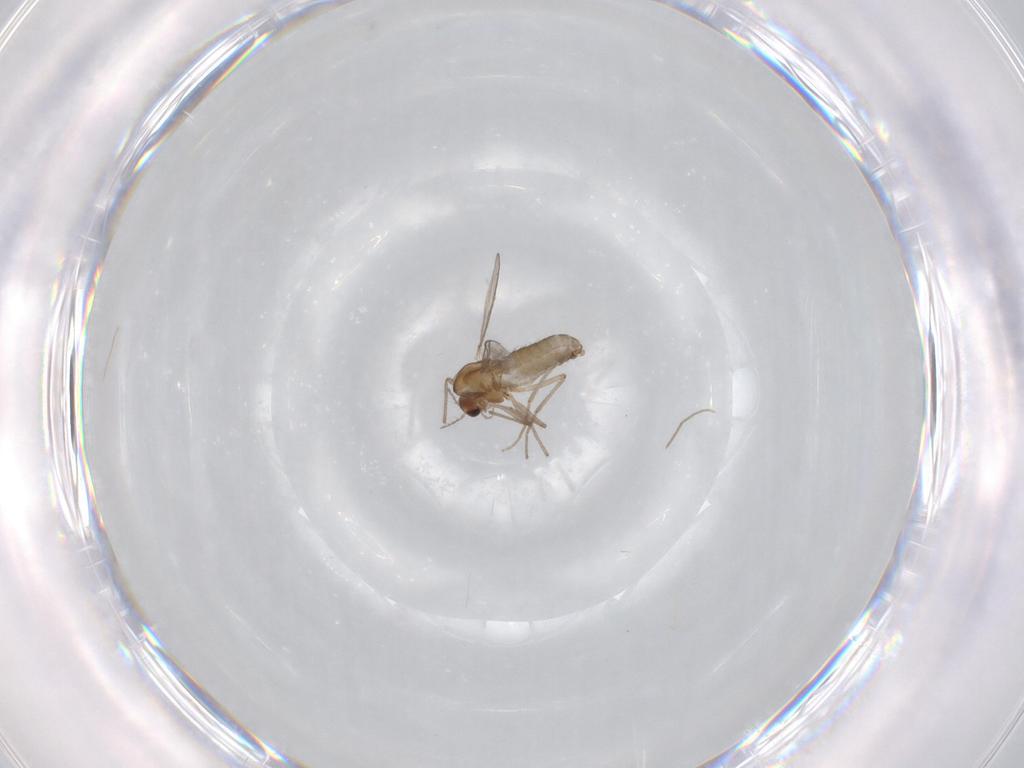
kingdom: Animalia
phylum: Arthropoda
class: Insecta
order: Diptera
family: Chironomidae
